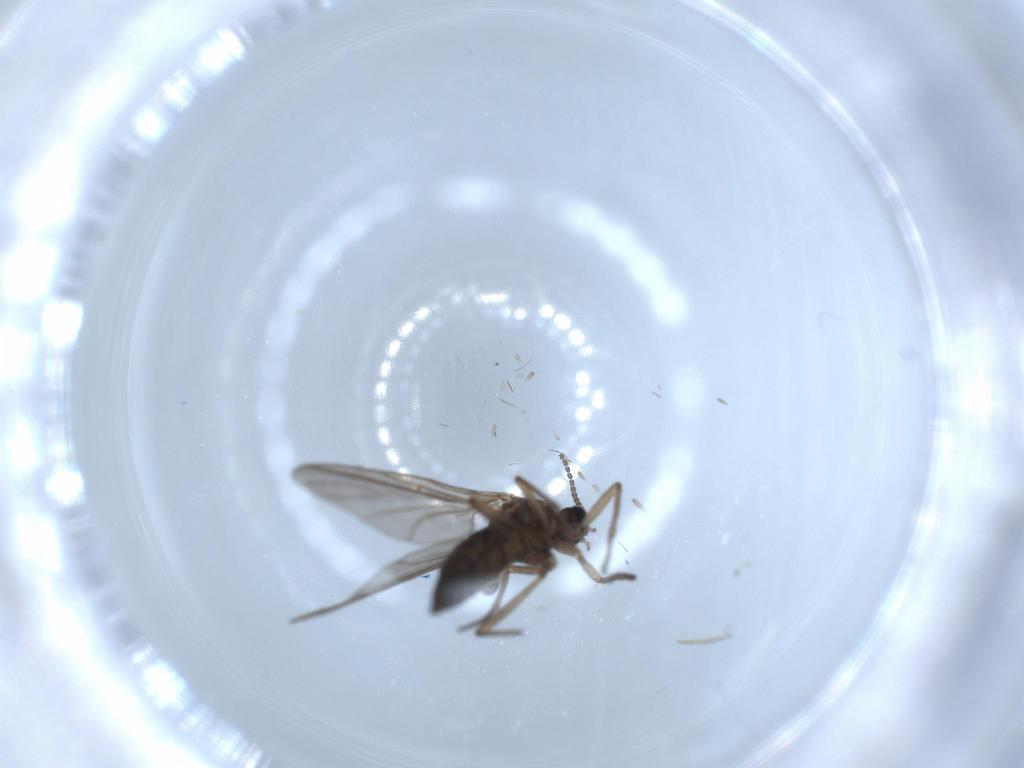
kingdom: Animalia
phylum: Arthropoda
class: Insecta
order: Diptera
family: Sciaridae
